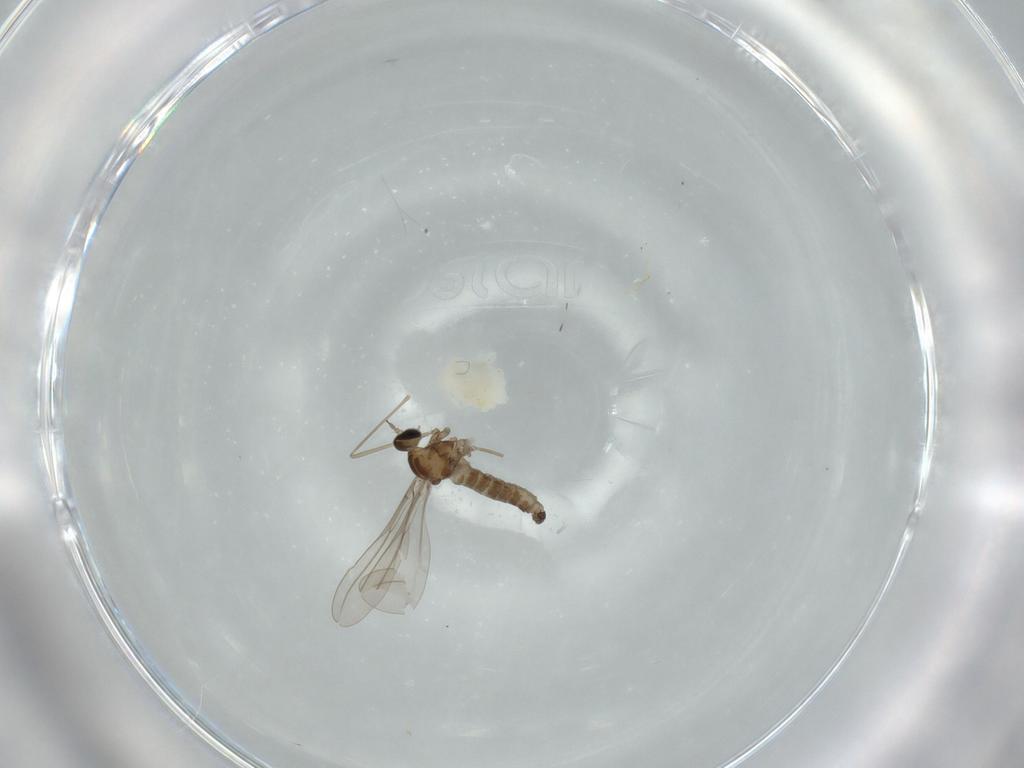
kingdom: Animalia
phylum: Arthropoda
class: Insecta
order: Diptera
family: Cecidomyiidae
